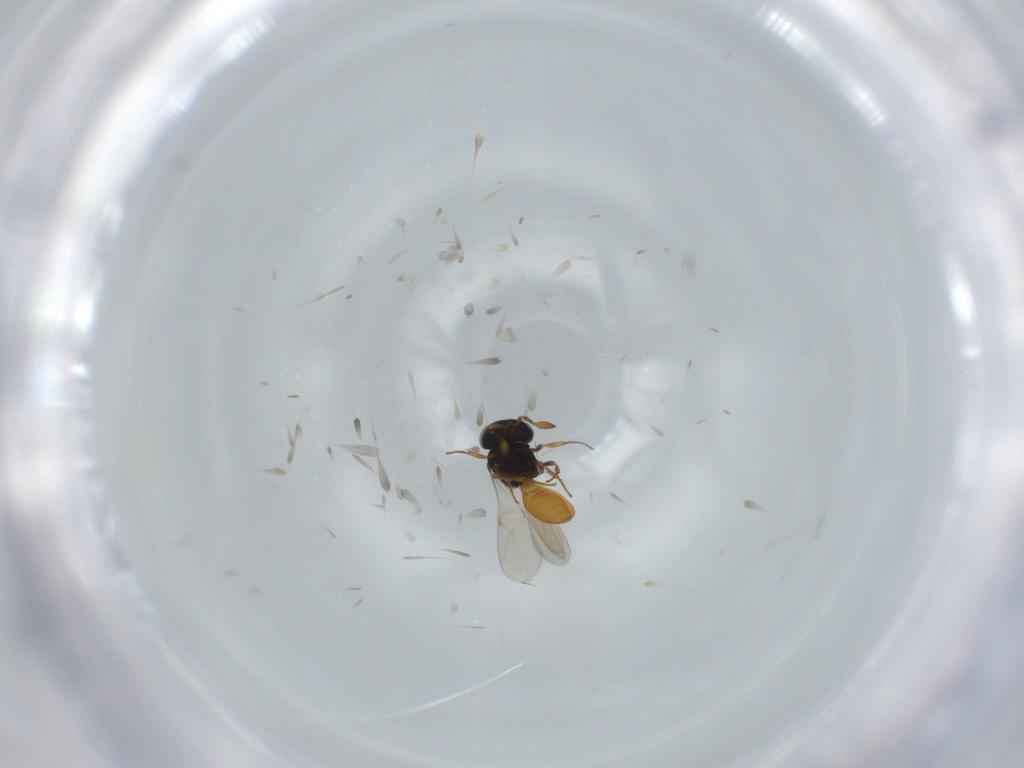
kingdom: Animalia
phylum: Arthropoda
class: Insecta
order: Hymenoptera
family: Scelionidae
